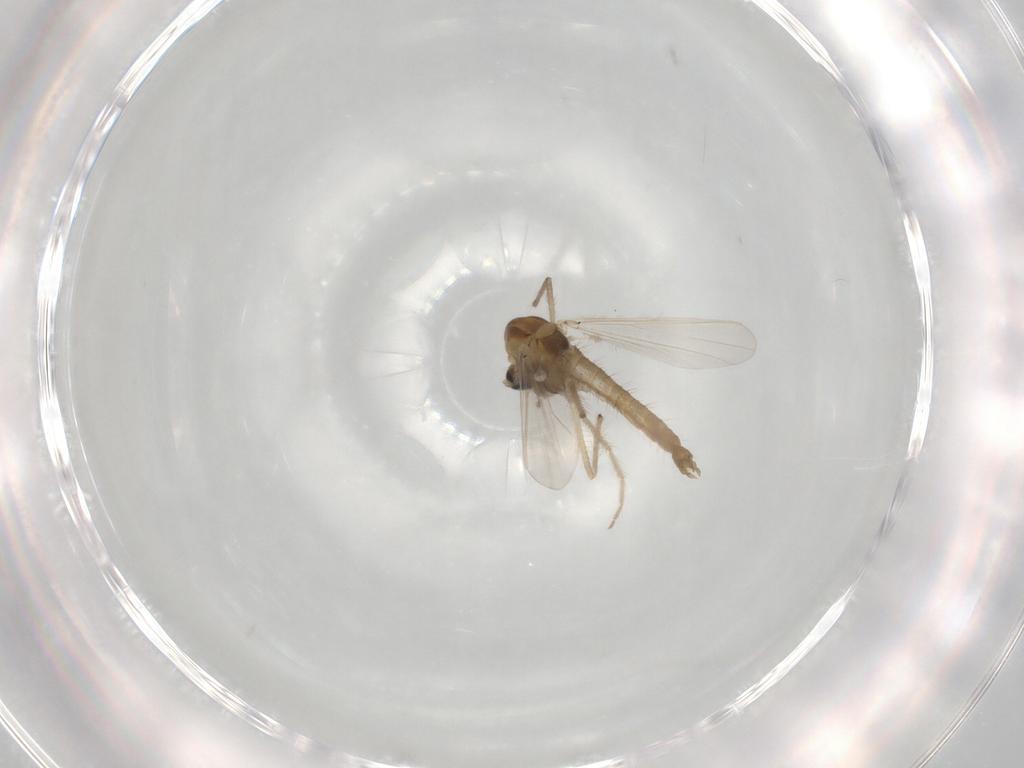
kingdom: Animalia
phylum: Arthropoda
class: Insecta
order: Diptera
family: Chironomidae
